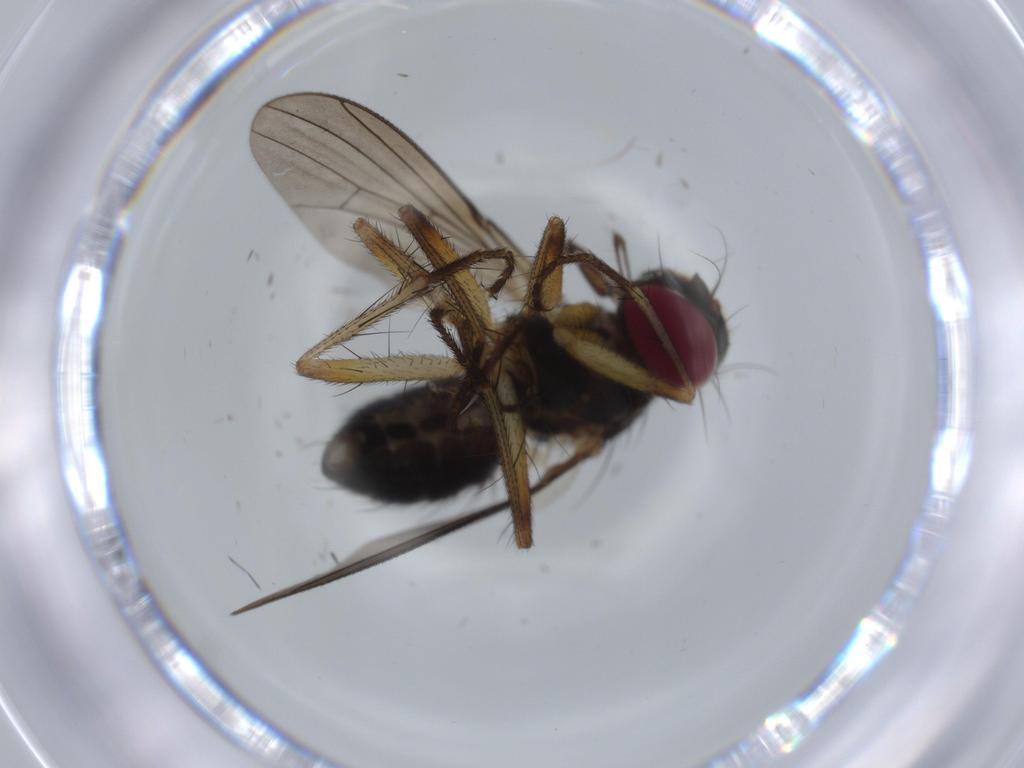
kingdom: Animalia
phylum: Arthropoda
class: Insecta
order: Diptera
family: Muscidae
